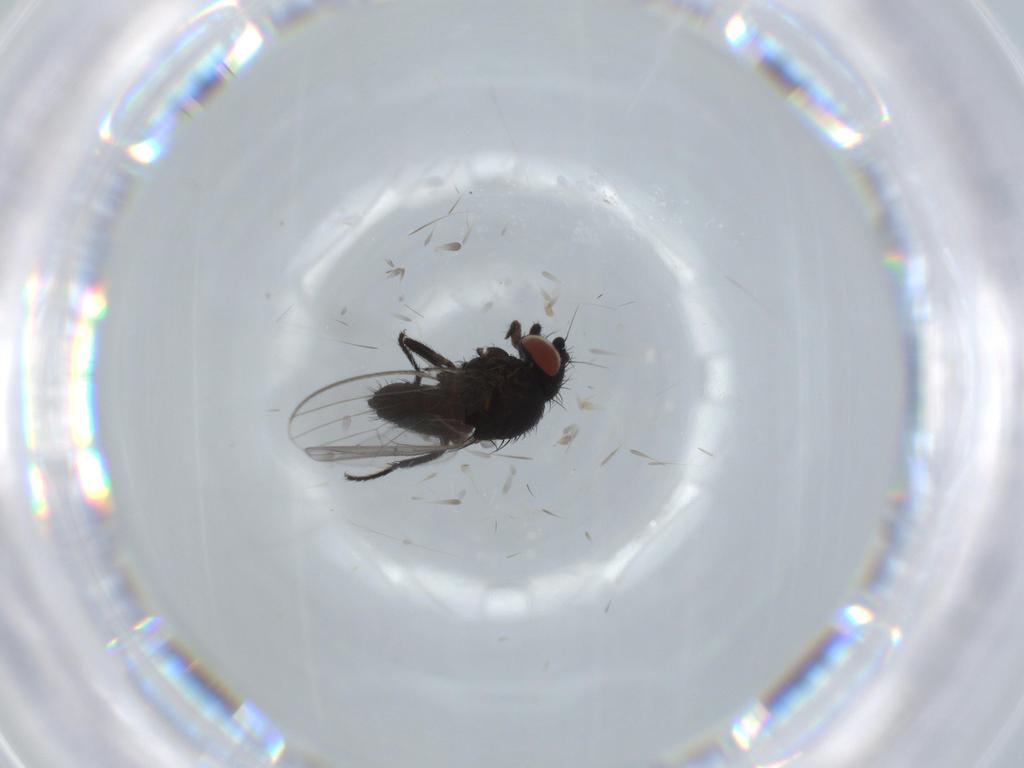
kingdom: Animalia
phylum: Arthropoda
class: Insecta
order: Diptera
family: Milichiidae
